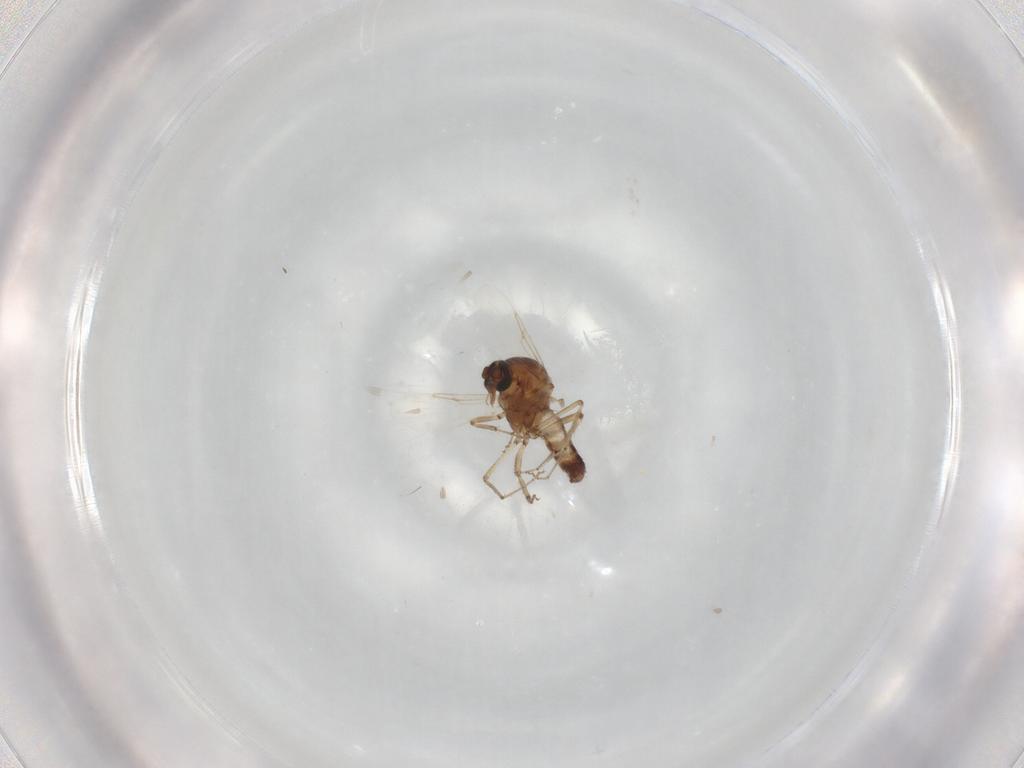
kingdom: Animalia
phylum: Arthropoda
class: Insecta
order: Diptera
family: Ceratopogonidae
